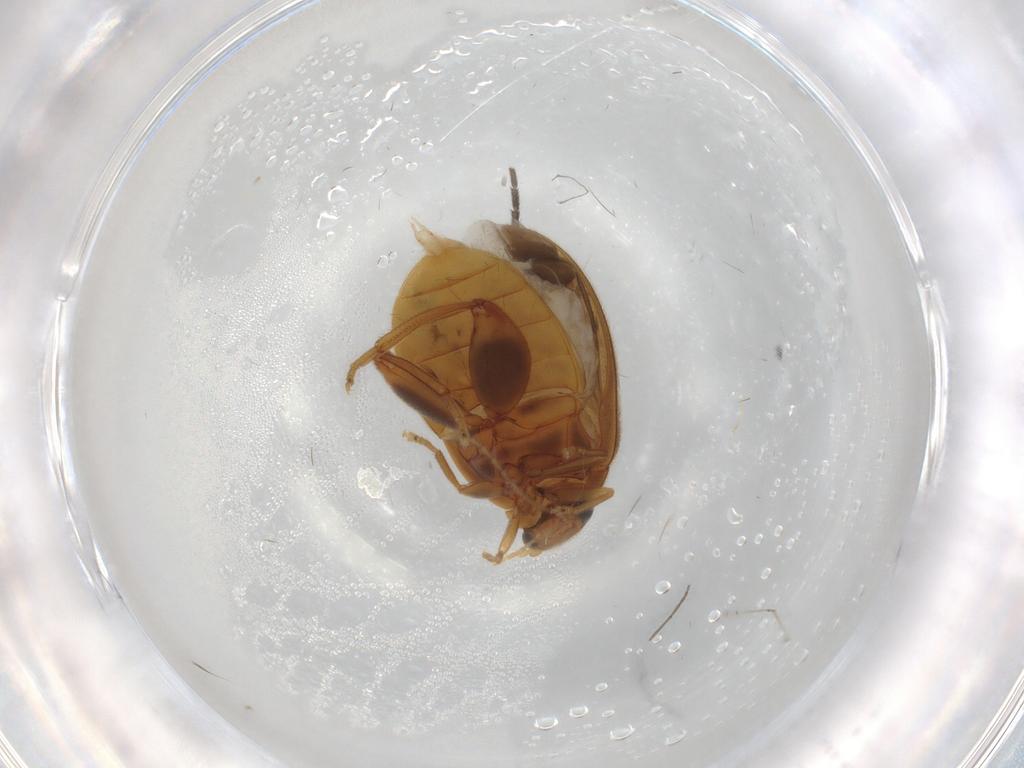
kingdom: Animalia
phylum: Arthropoda
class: Insecta
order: Coleoptera
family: Scirtidae
